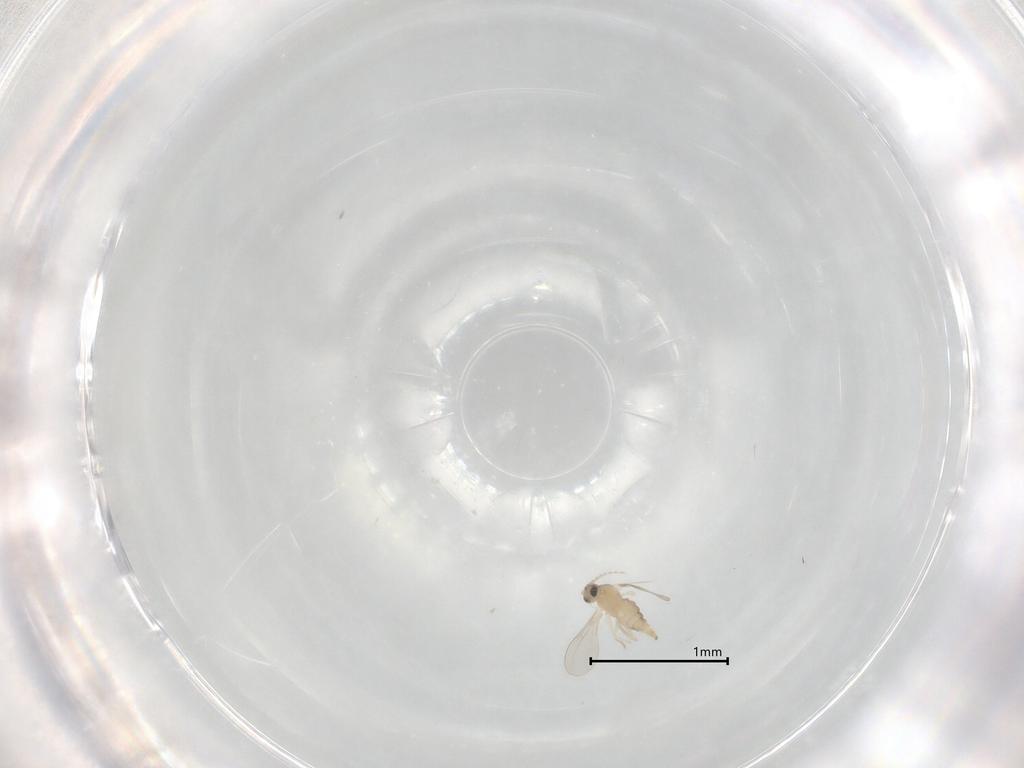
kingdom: Animalia
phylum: Arthropoda
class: Insecta
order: Diptera
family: Cecidomyiidae
